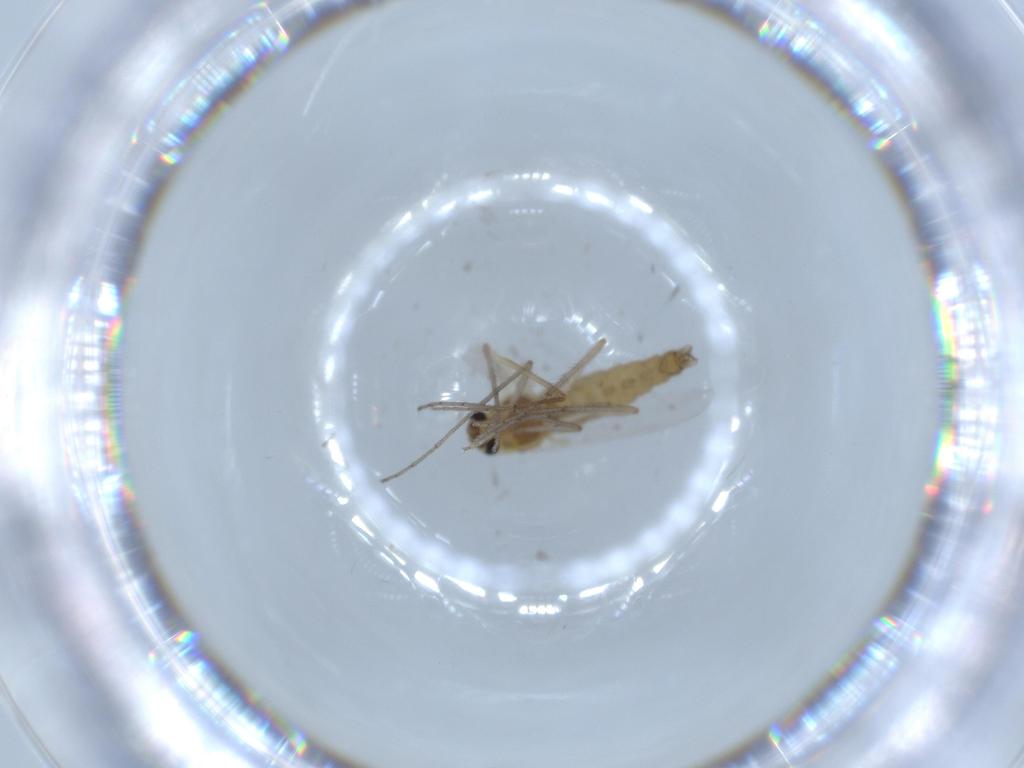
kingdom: Animalia
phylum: Arthropoda
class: Insecta
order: Diptera
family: Chironomidae
